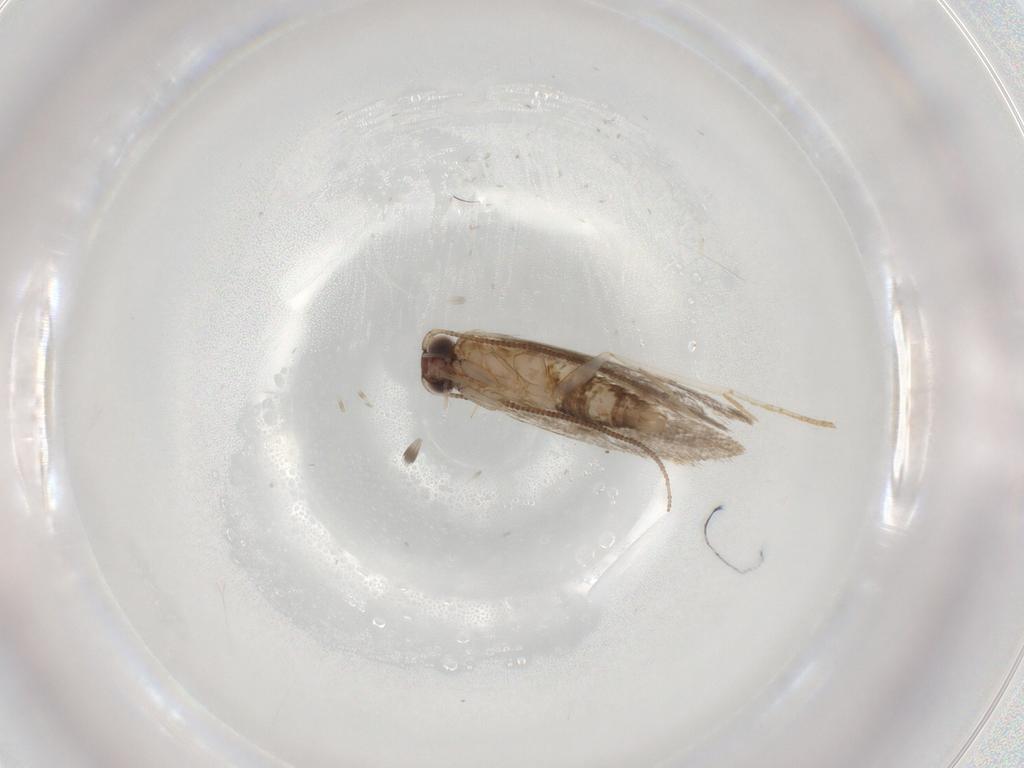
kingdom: Animalia
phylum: Arthropoda
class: Insecta
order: Lepidoptera
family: Tineidae
